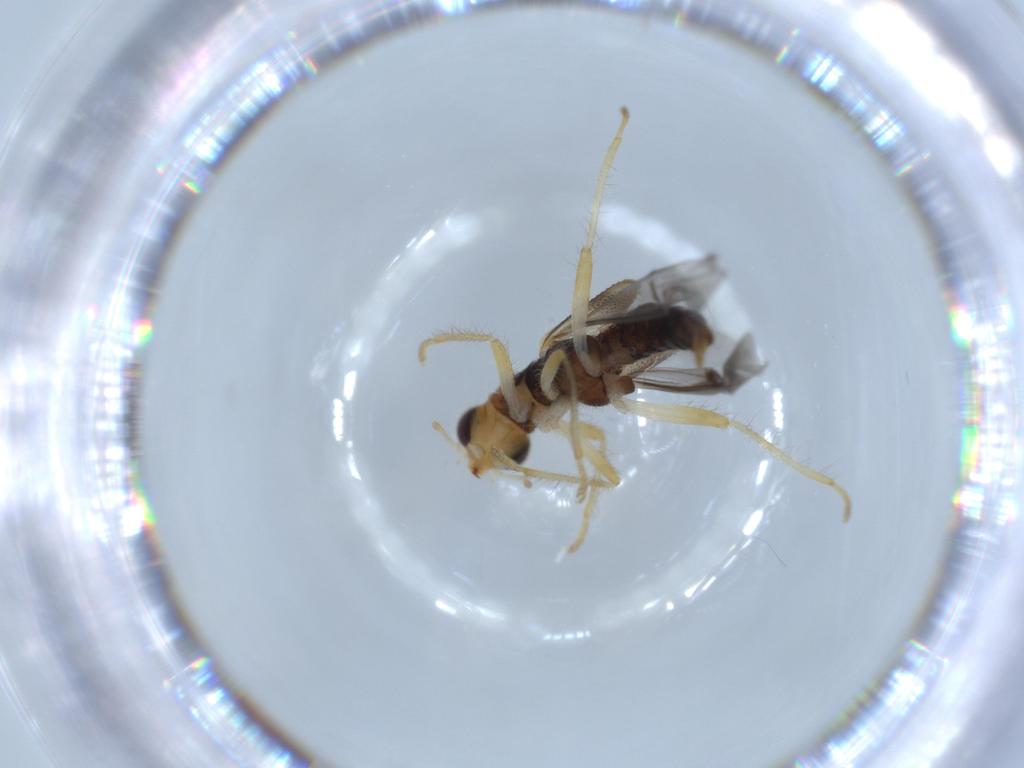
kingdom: Animalia
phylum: Arthropoda
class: Insecta
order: Coleoptera
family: Cleridae
